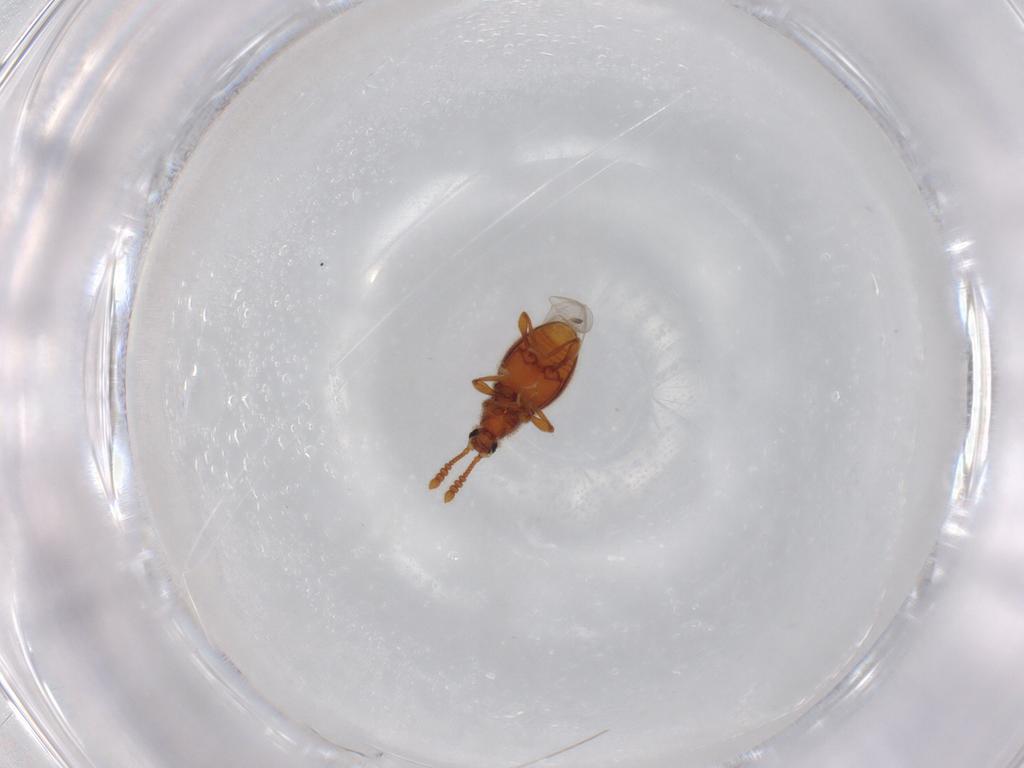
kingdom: Animalia
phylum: Arthropoda
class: Insecta
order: Coleoptera
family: Staphylinidae
